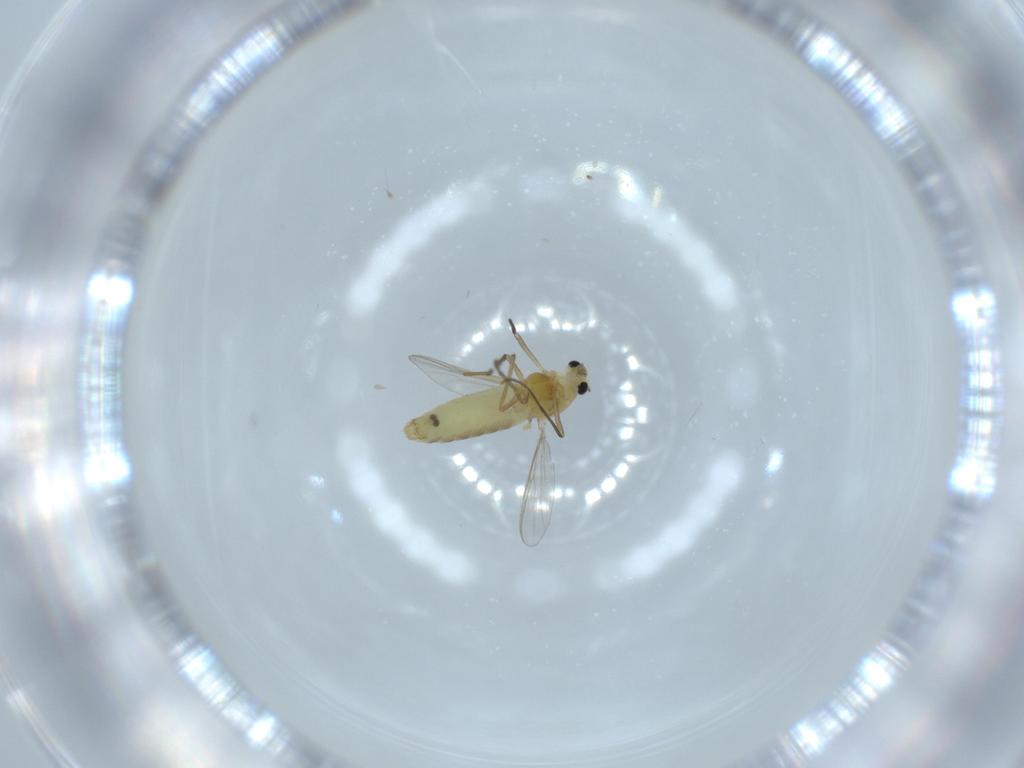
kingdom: Animalia
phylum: Arthropoda
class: Insecta
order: Diptera
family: Chironomidae
